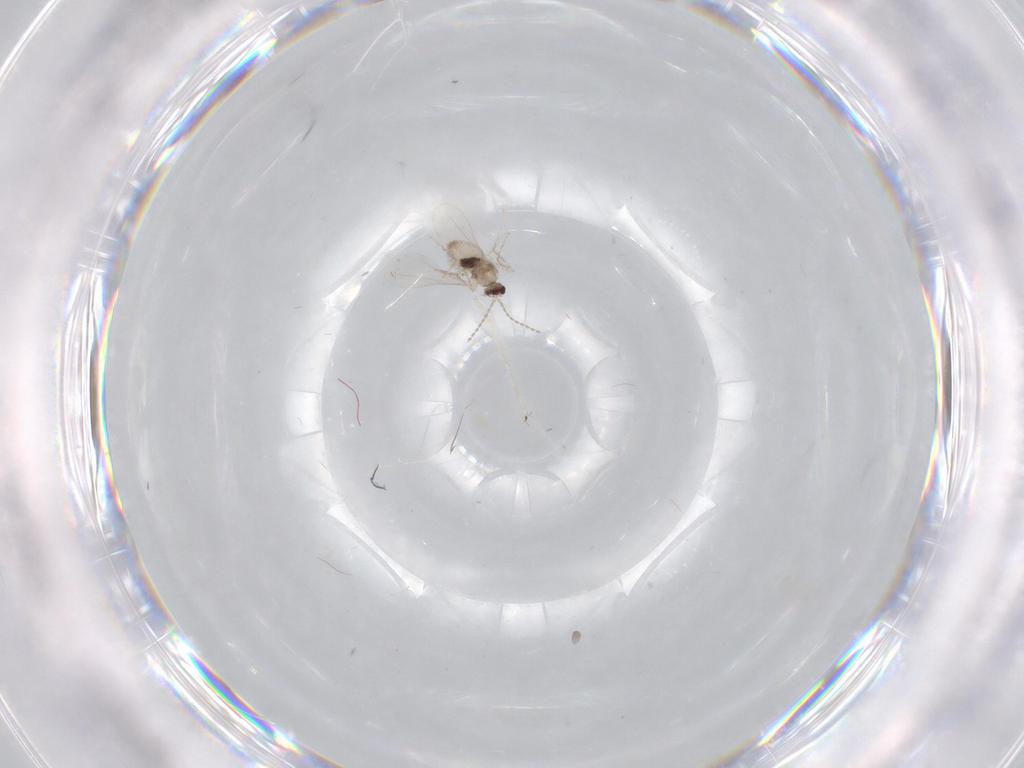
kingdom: Animalia
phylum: Arthropoda
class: Insecta
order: Diptera
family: Cecidomyiidae
